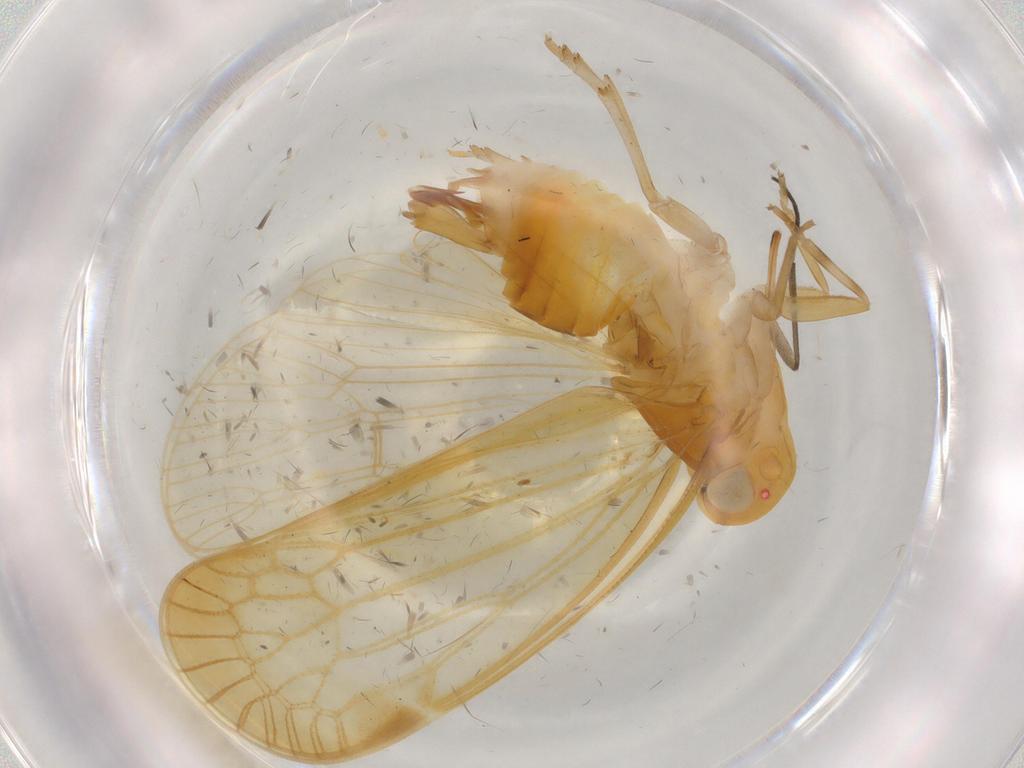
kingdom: Animalia
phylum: Arthropoda
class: Insecta
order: Hemiptera
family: Cixiidae
